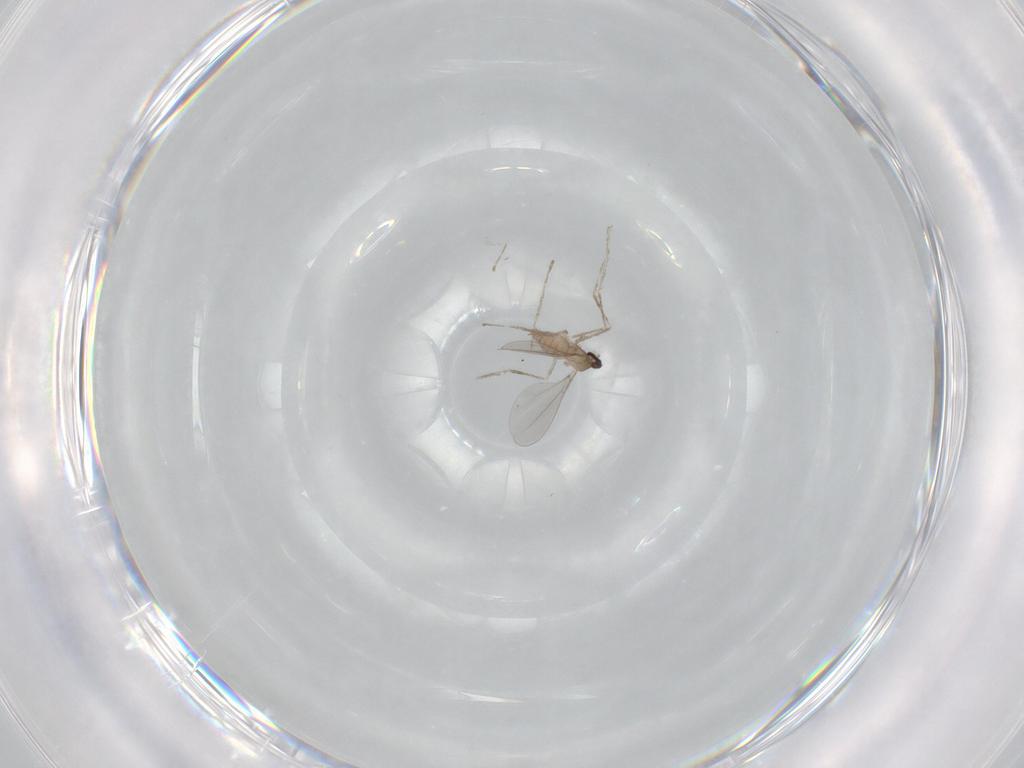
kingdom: Animalia
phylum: Arthropoda
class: Insecta
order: Diptera
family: Cecidomyiidae
